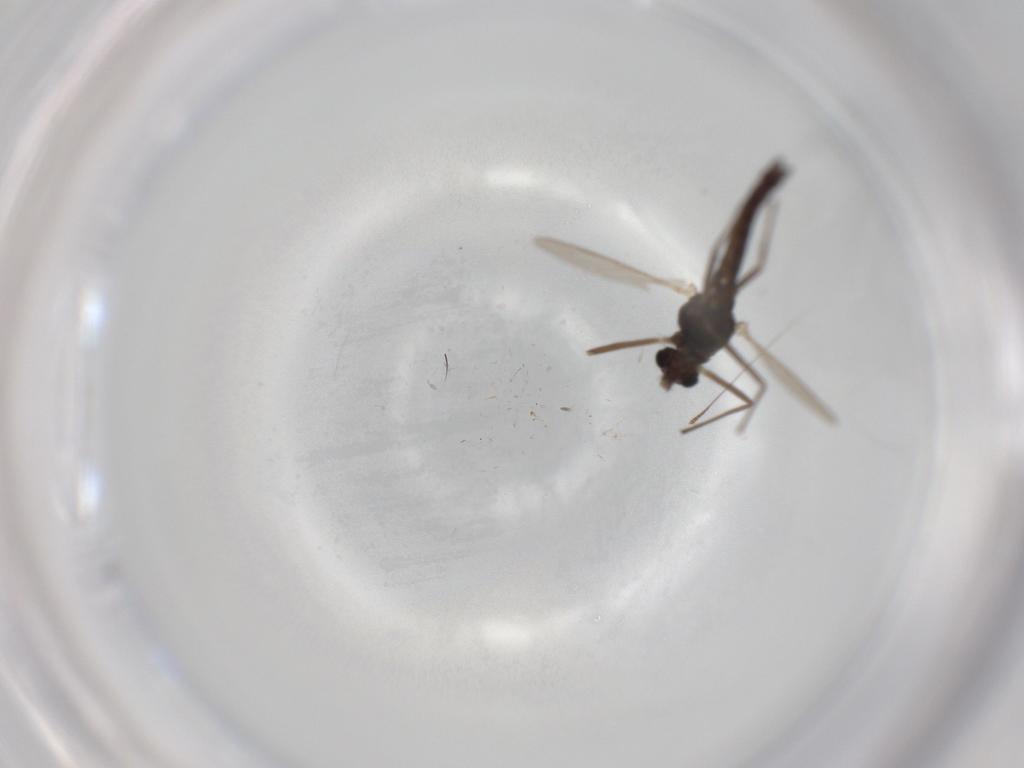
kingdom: Animalia
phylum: Arthropoda
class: Insecta
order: Diptera
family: Chironomidae
